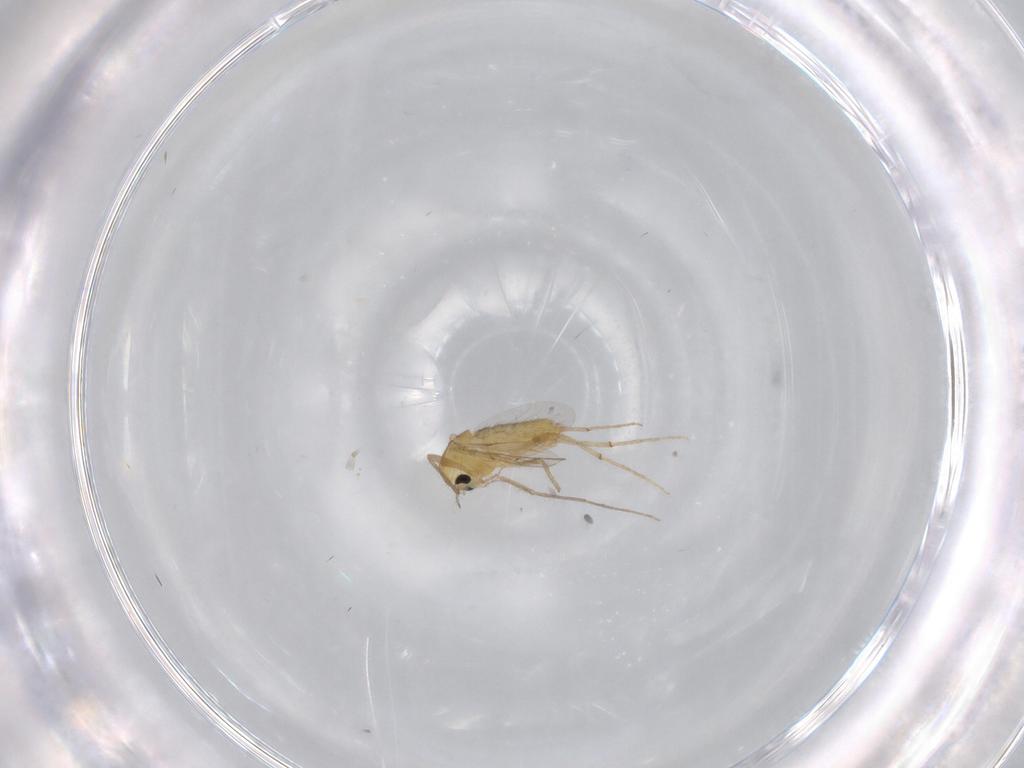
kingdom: Animalia
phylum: Arthropoda
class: Insecta
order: Diptera
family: Chironomidae
